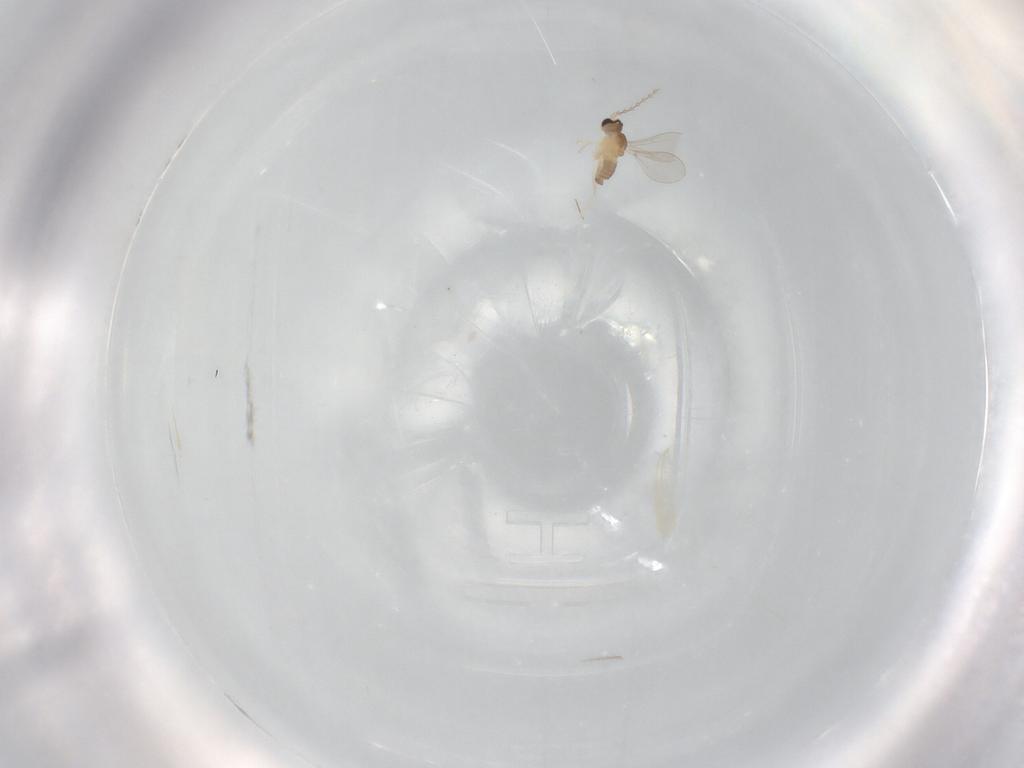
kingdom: Animalia
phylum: Arthropoda
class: Insecta
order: Diptera
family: Cecidomyiidae
